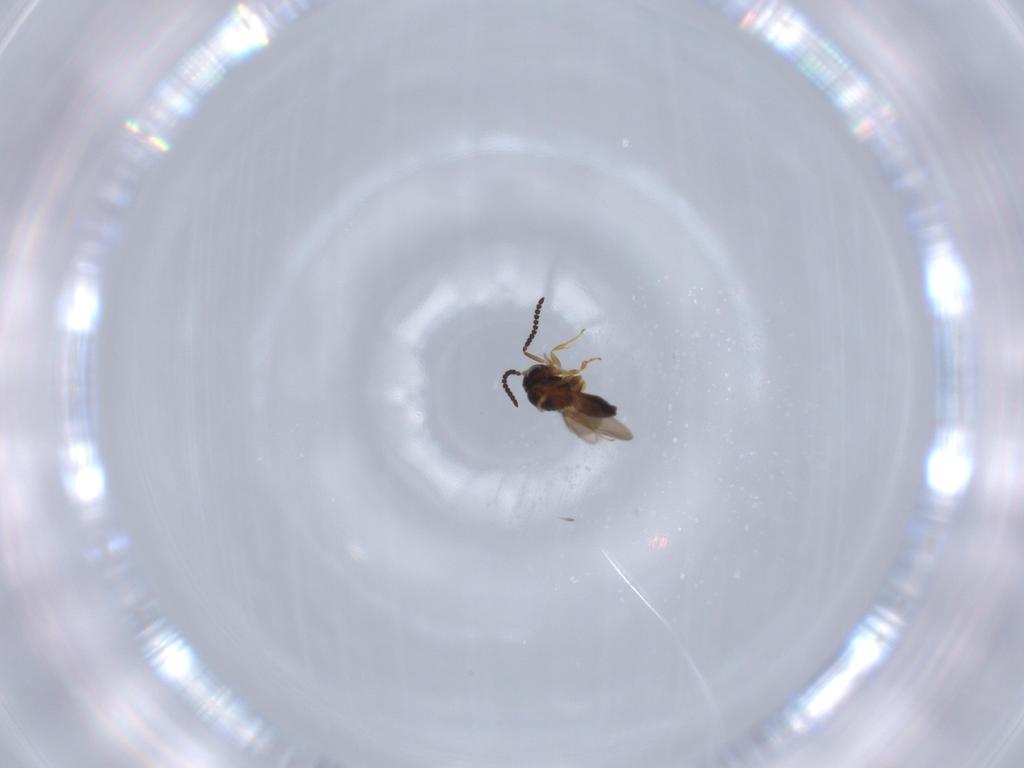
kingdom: Animalia
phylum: Arthropoda
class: Insecta
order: Hymenoptera
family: Scelionidae
